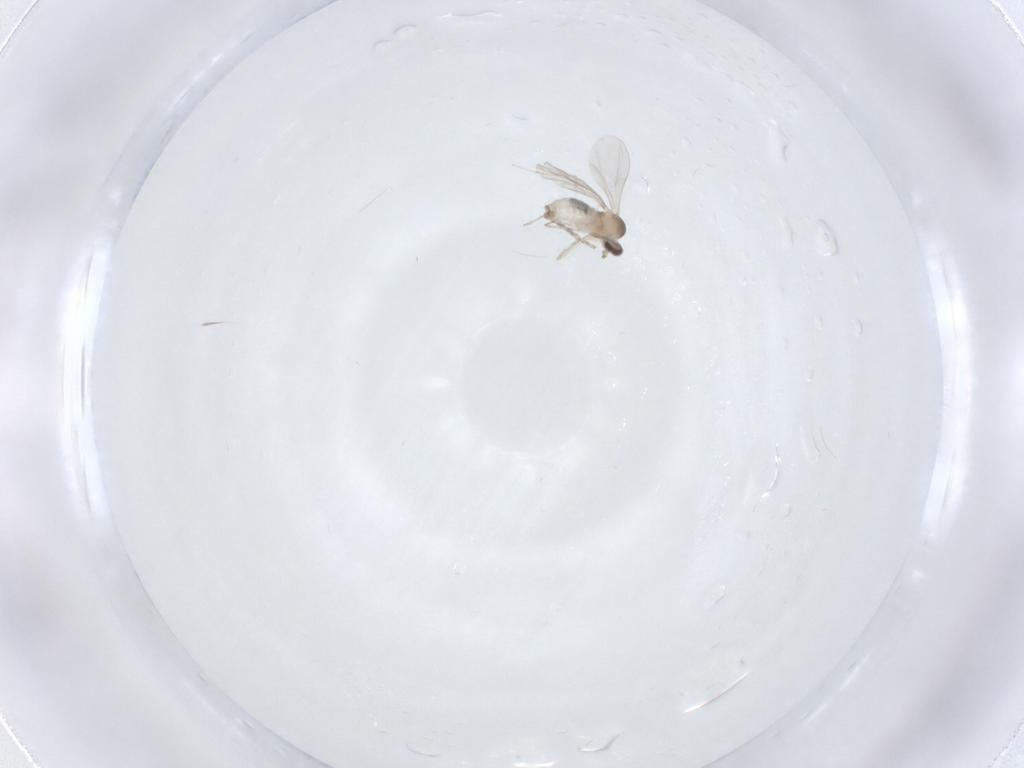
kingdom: Animalia
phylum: Arthropoda
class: Insecta
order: Diptera
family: Cecidomyiidae
